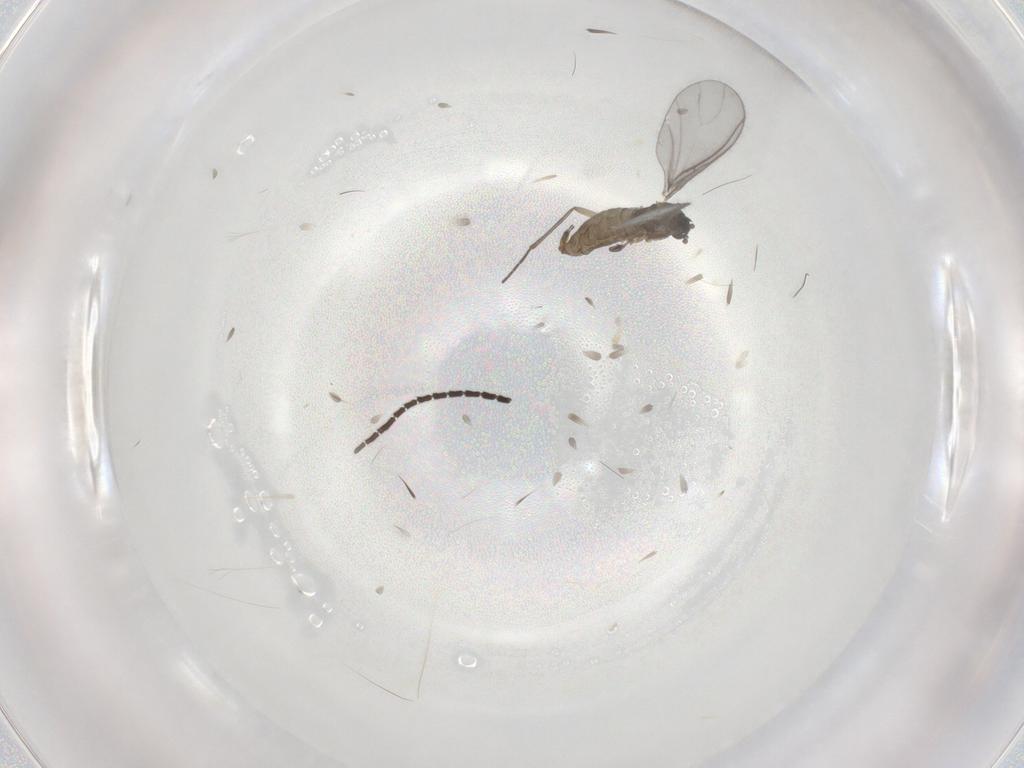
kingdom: Animalia
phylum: Arthropoda
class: Insecta
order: Diptera
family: Sciaridae
